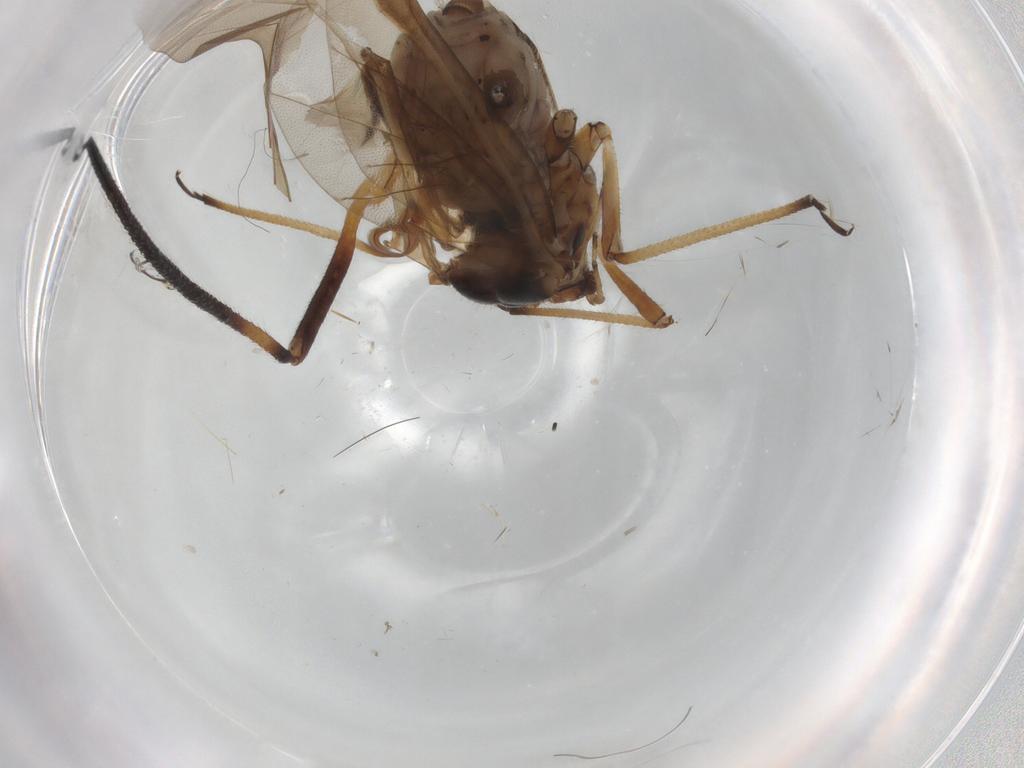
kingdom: Animalia
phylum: Arthropoda
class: Insecta
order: Hemiptera
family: Aphididae
